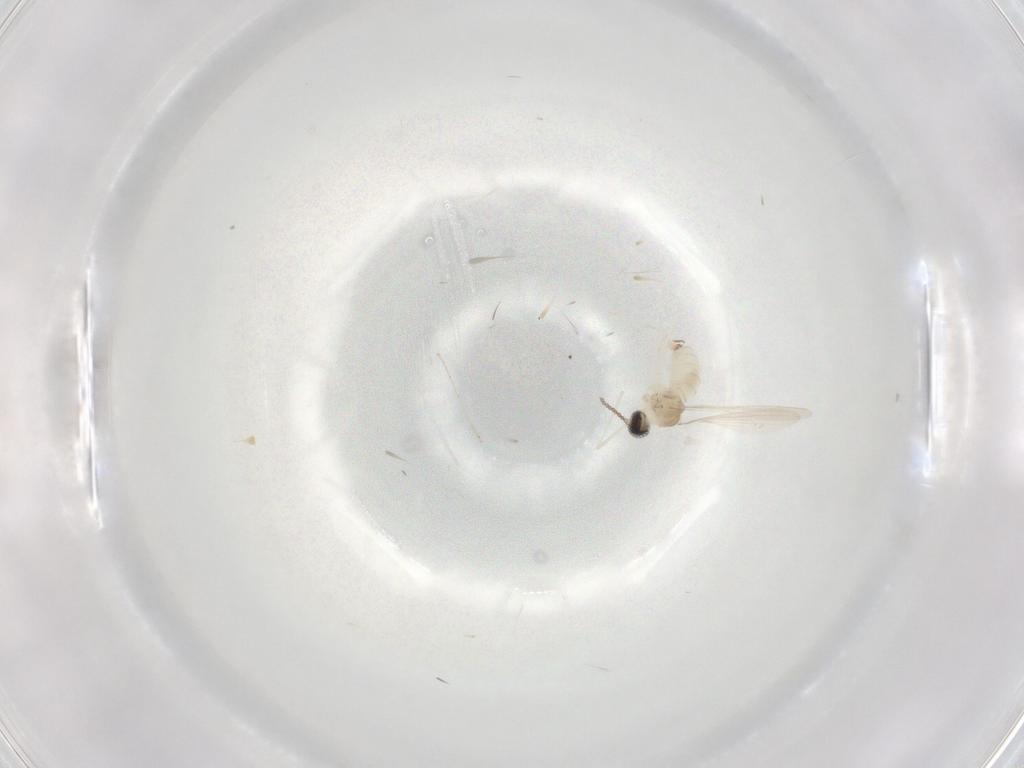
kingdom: Animalia
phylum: Arthropoda
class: Insecta
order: Diptera
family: Cecidomyiidae
